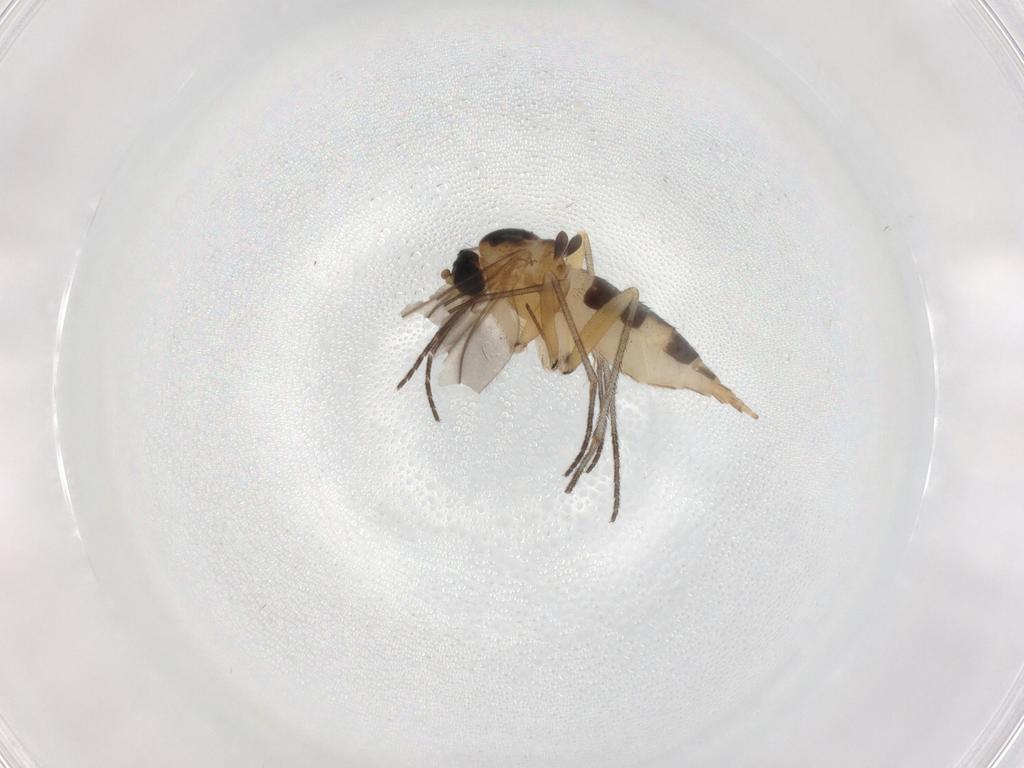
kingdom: Animalia
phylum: Arthropoda
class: Insecta
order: Diptera
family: Sciaridae
